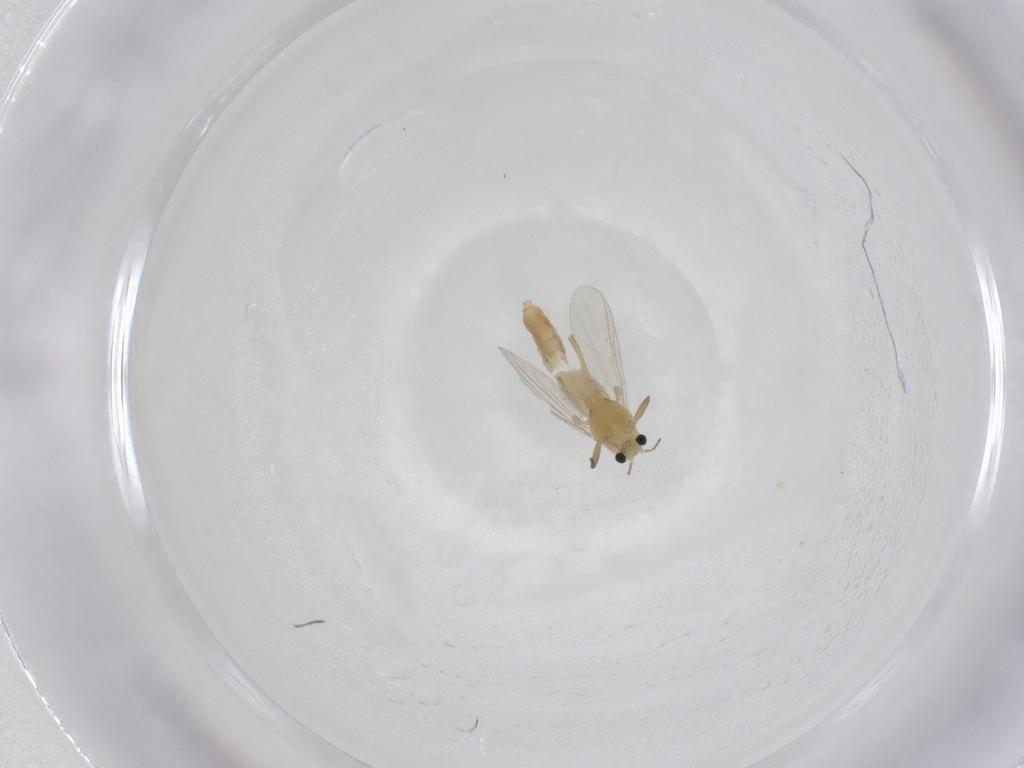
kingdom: Animalia
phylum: Arthropoda
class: Insecta
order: Diptera
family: Chironomidae
